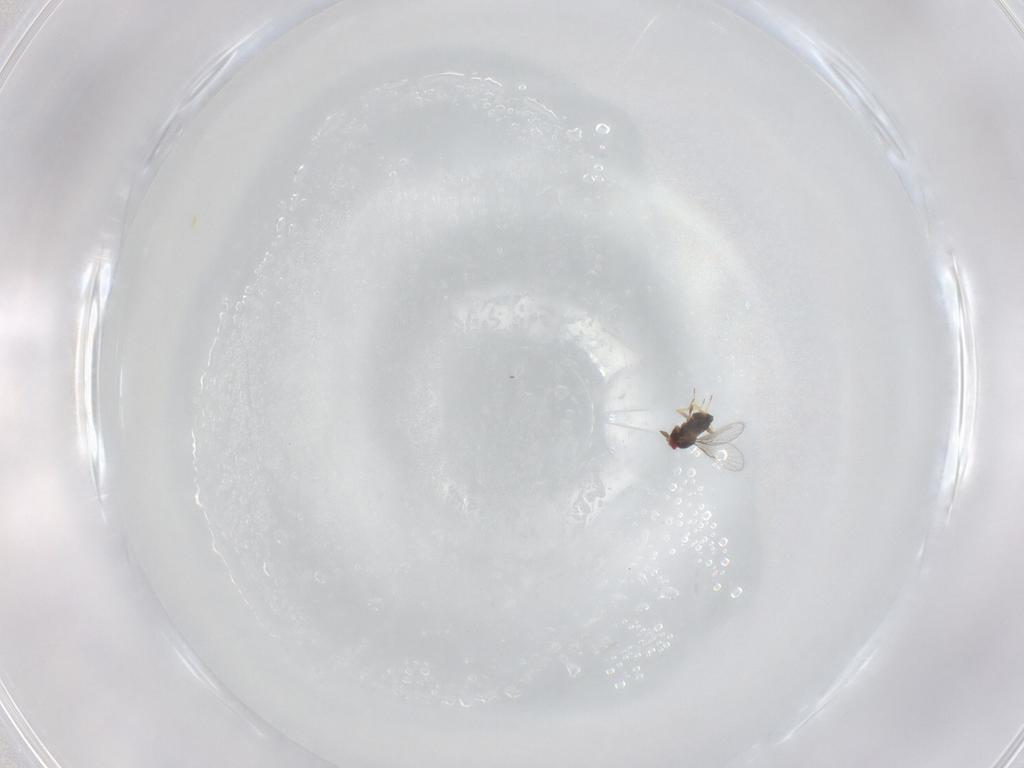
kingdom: Animalia
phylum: Arthropoda
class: Insecta
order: Hymenoptera
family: Trichogrammatidae
